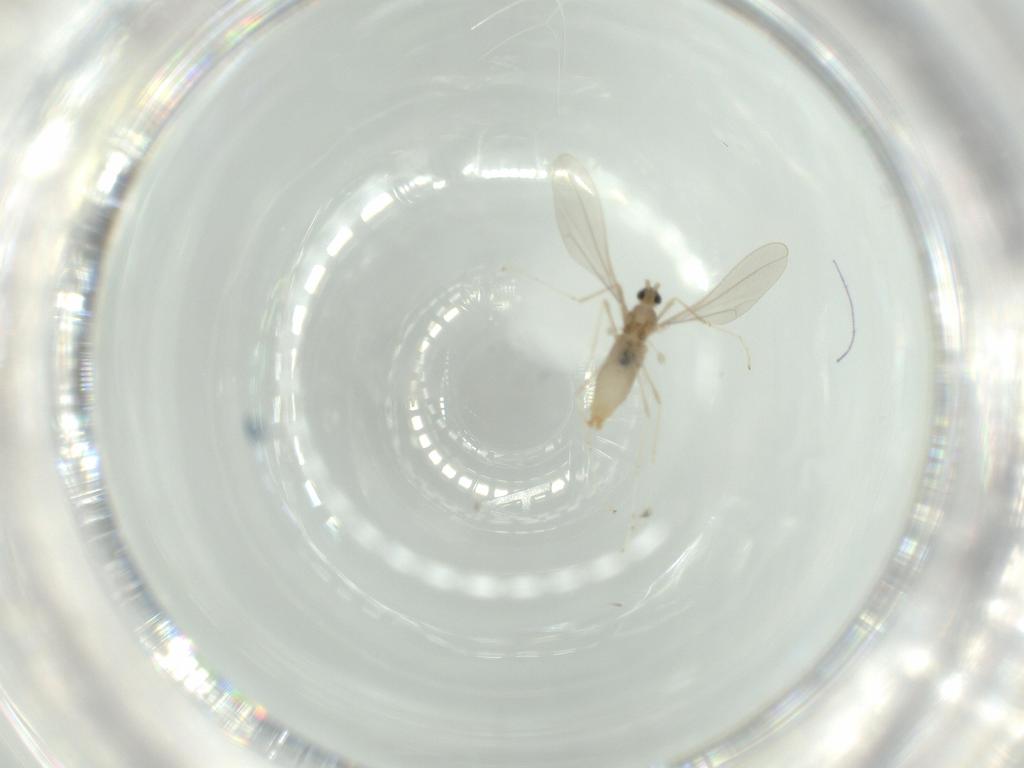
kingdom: Animalia
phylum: Arthropoda
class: Insecta
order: Diptera
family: Cecidomyiidae
